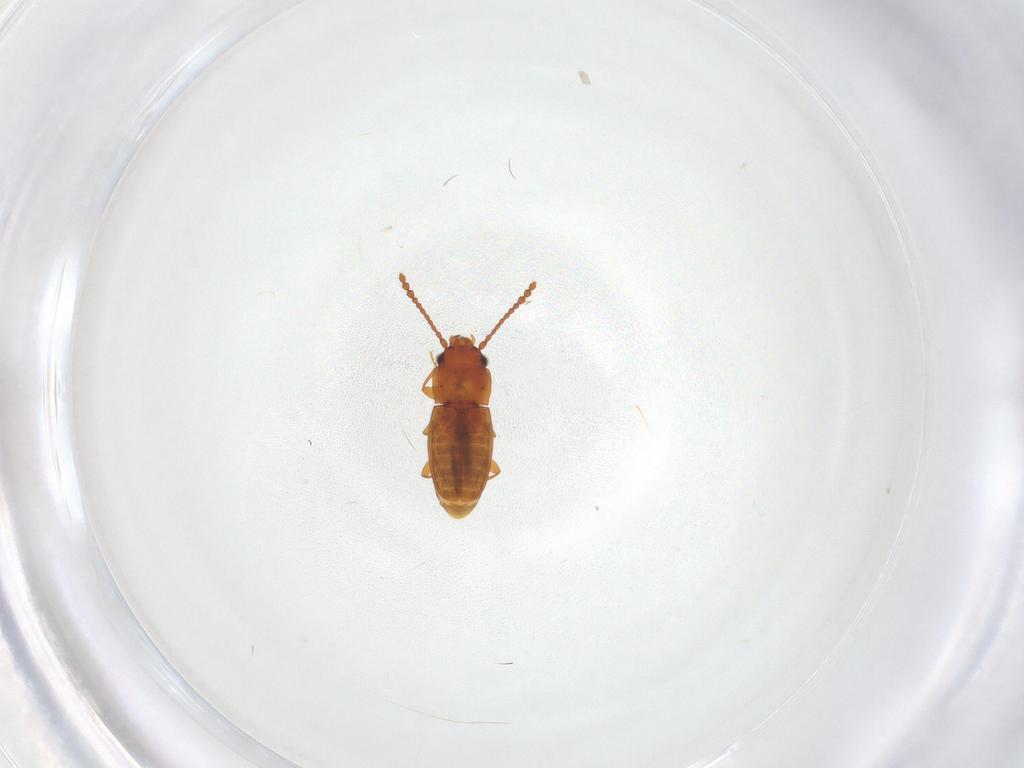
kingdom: Animalia
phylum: Arthropoda
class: Insecta
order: Coleoptera
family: Laemophloeidae
